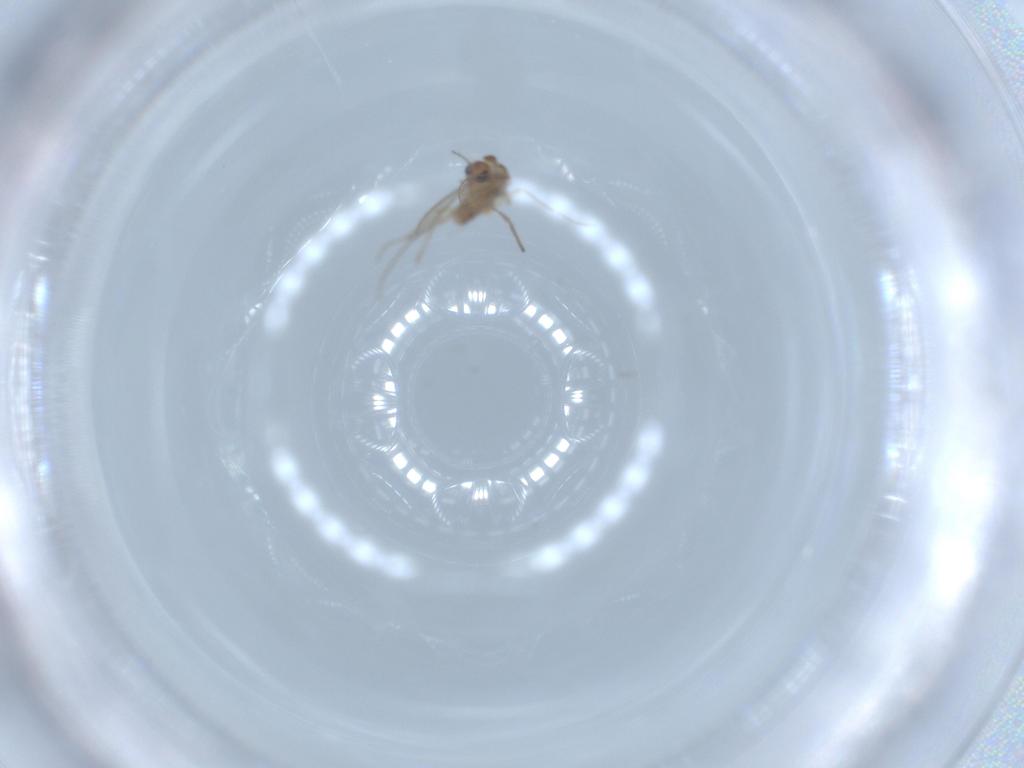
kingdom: Animalia
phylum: Arthropoda
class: Insecta
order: Diptera
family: Chironomidae
